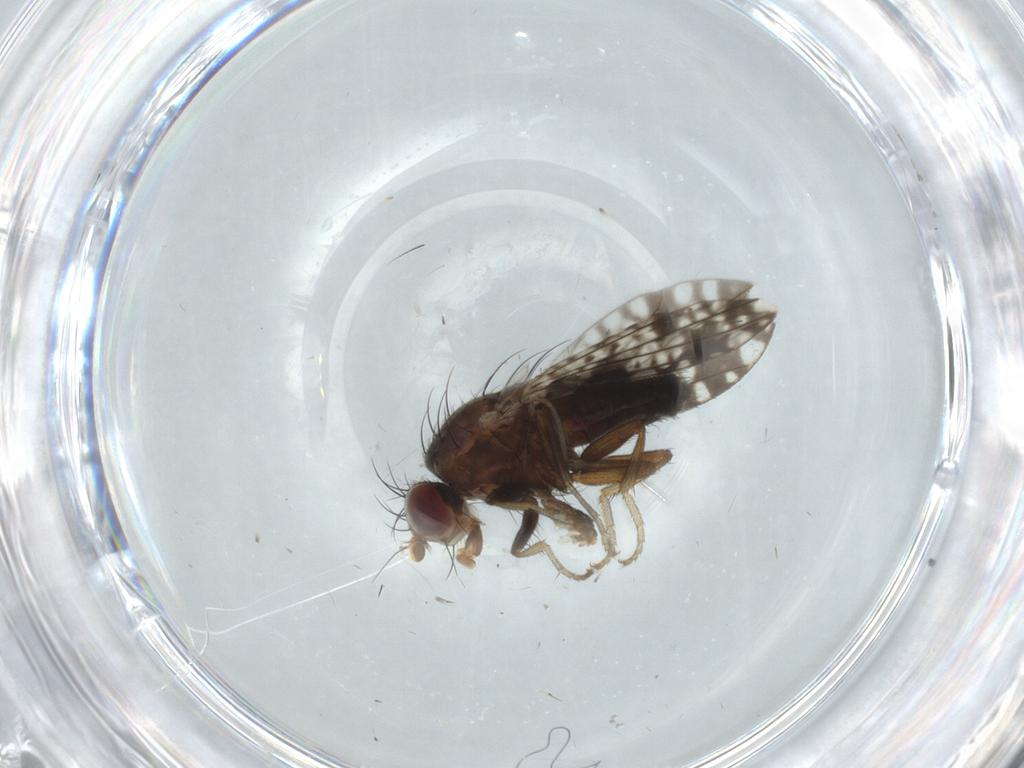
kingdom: Animalia
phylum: Arthropoda
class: Insecta
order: Diptera
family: Tephritidae
